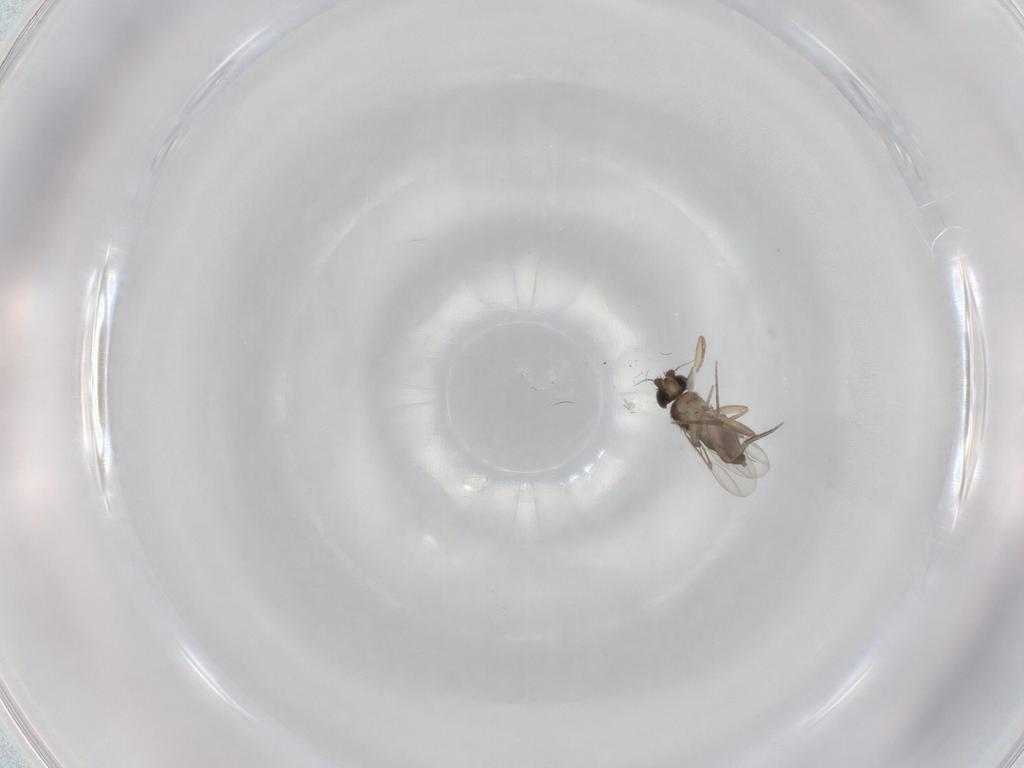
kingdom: Animalia
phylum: Arthropoda
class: Insecta
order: Diptera
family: Phoridae
